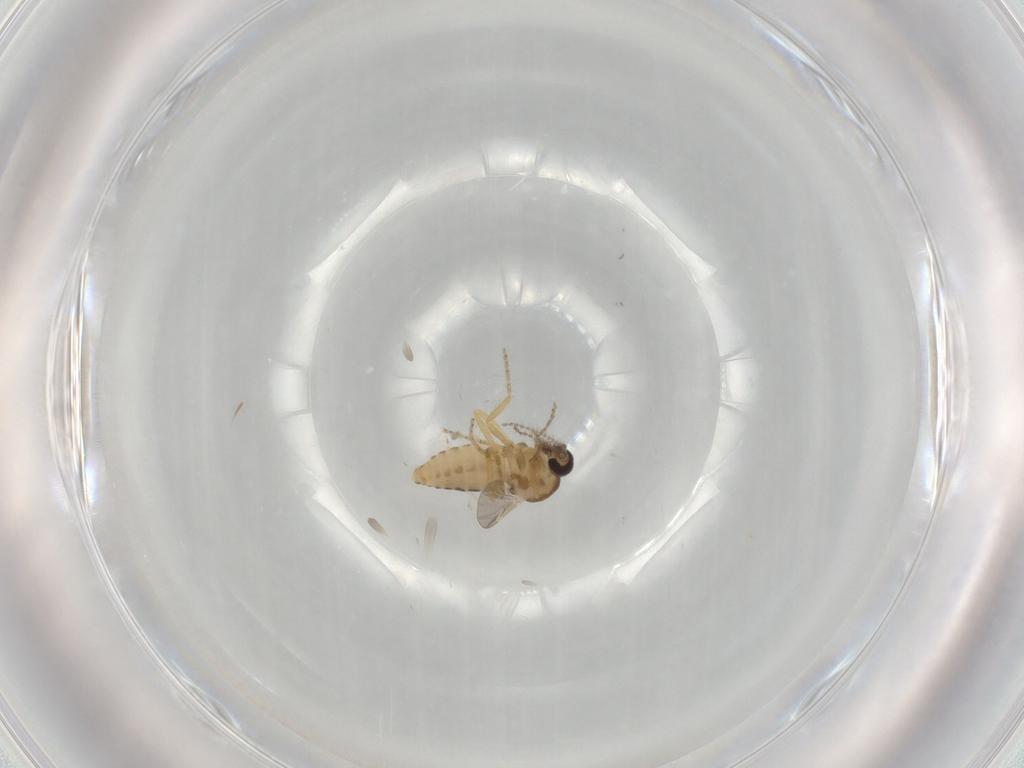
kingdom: Animalia
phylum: Arthropoda
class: Insecta
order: Diptera
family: Ceratopogonidae
